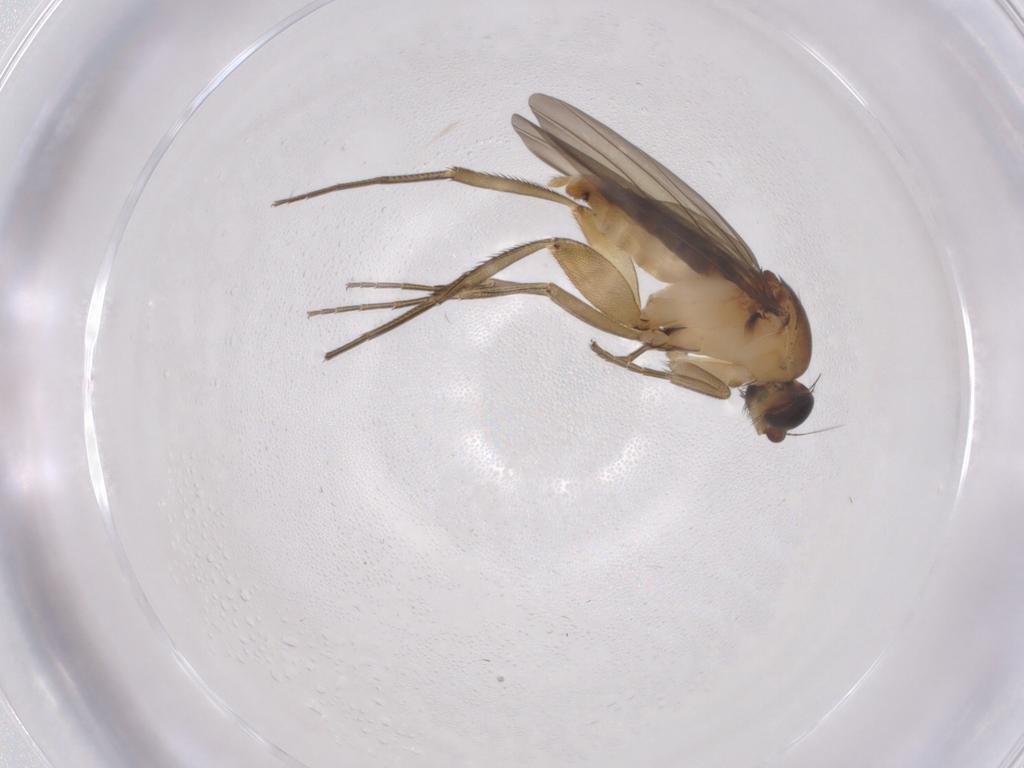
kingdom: Animalia
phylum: Arthropoda
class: Insecta
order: Diptera
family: Phoridae
